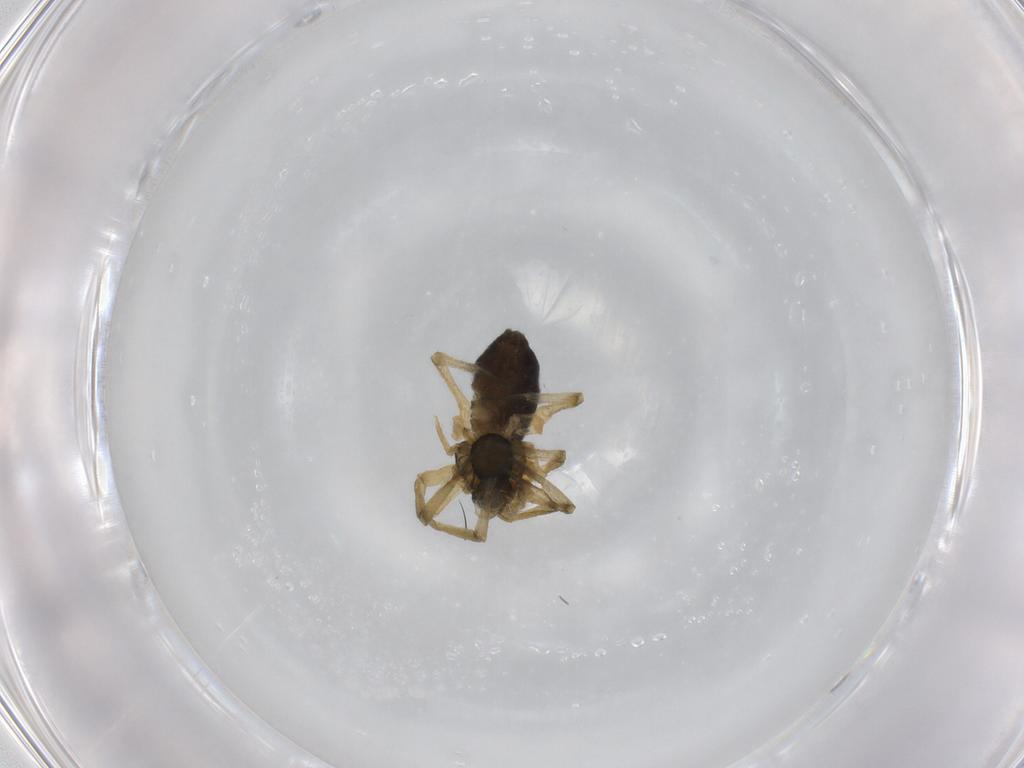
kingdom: Animalia
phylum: Arthropoda
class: Arachnida
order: Araneae
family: Linyphiidae
